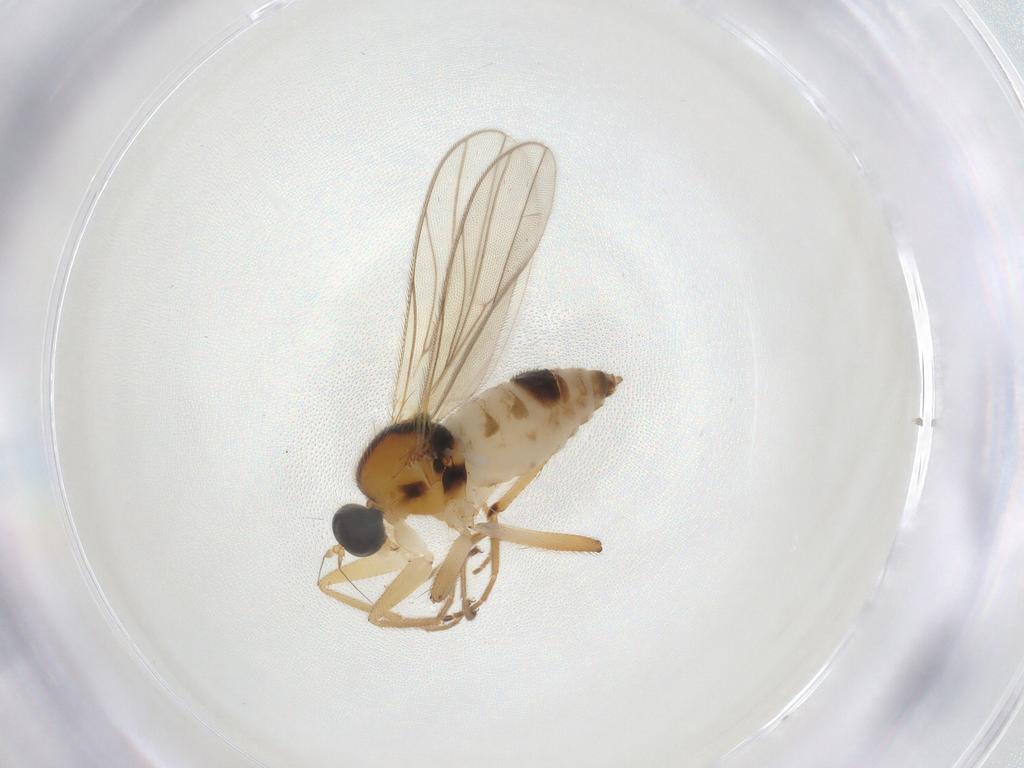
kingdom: Animalia
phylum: Arthropoda
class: Insecta
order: Diptera
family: Hybotidae
